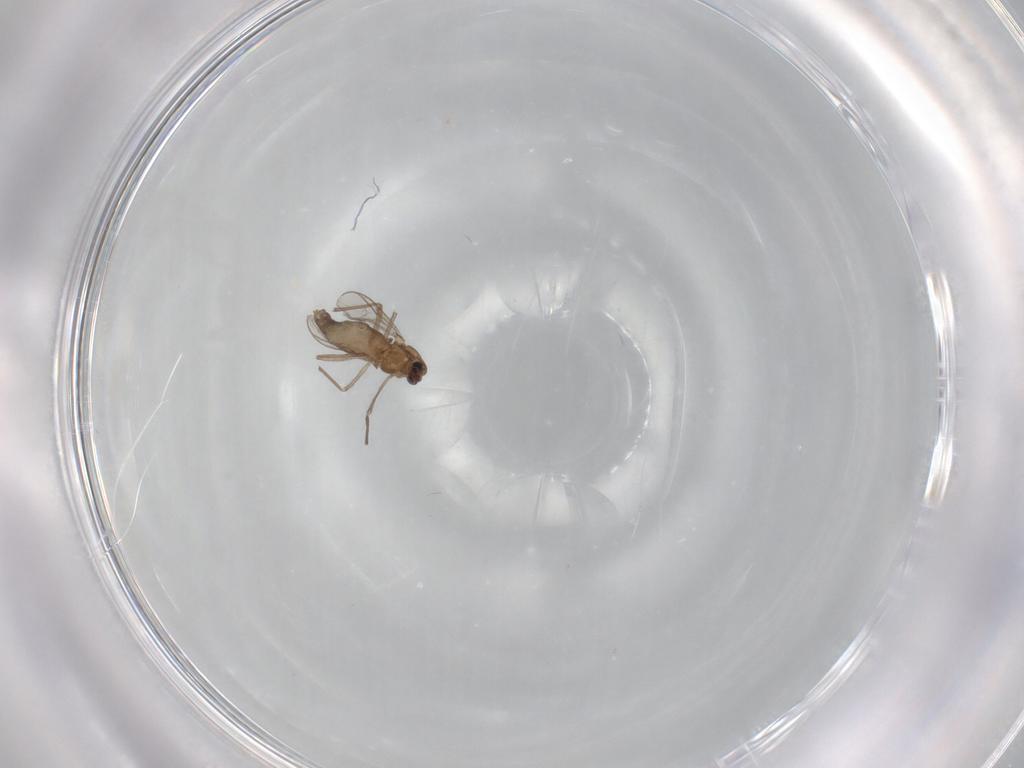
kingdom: Animalia
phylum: Arthropoda
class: Insecta
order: Diptera
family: Chironomidae
